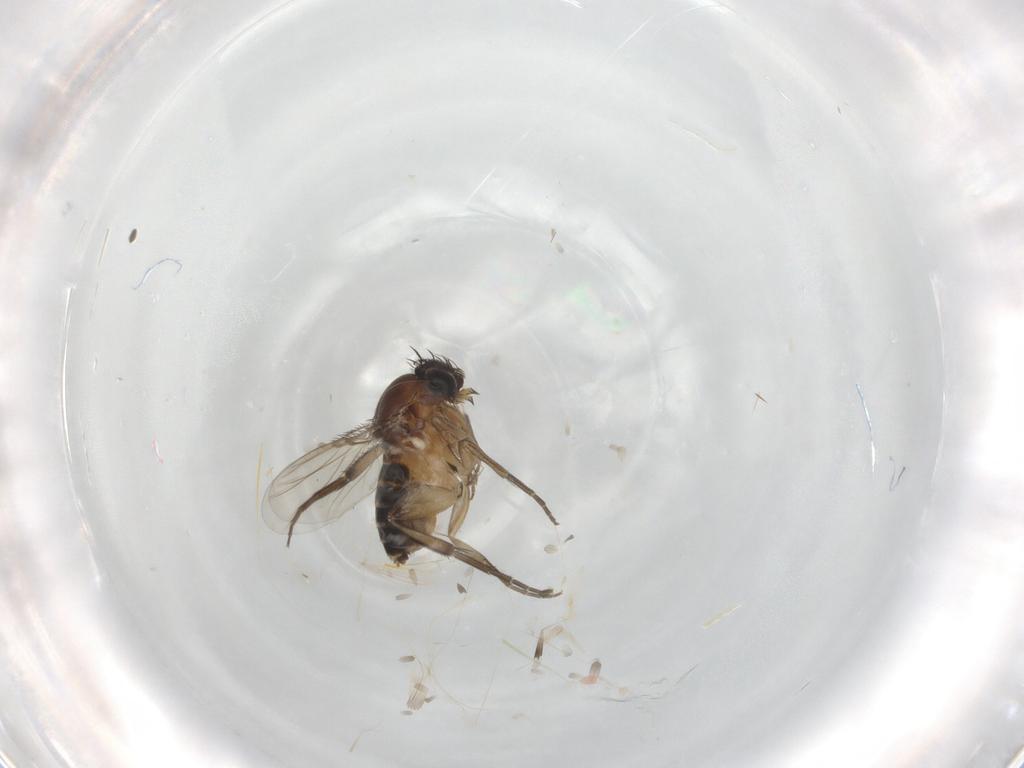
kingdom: Animalia
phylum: Arthropoda
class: Insecta
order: Diptera
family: Phoridae
